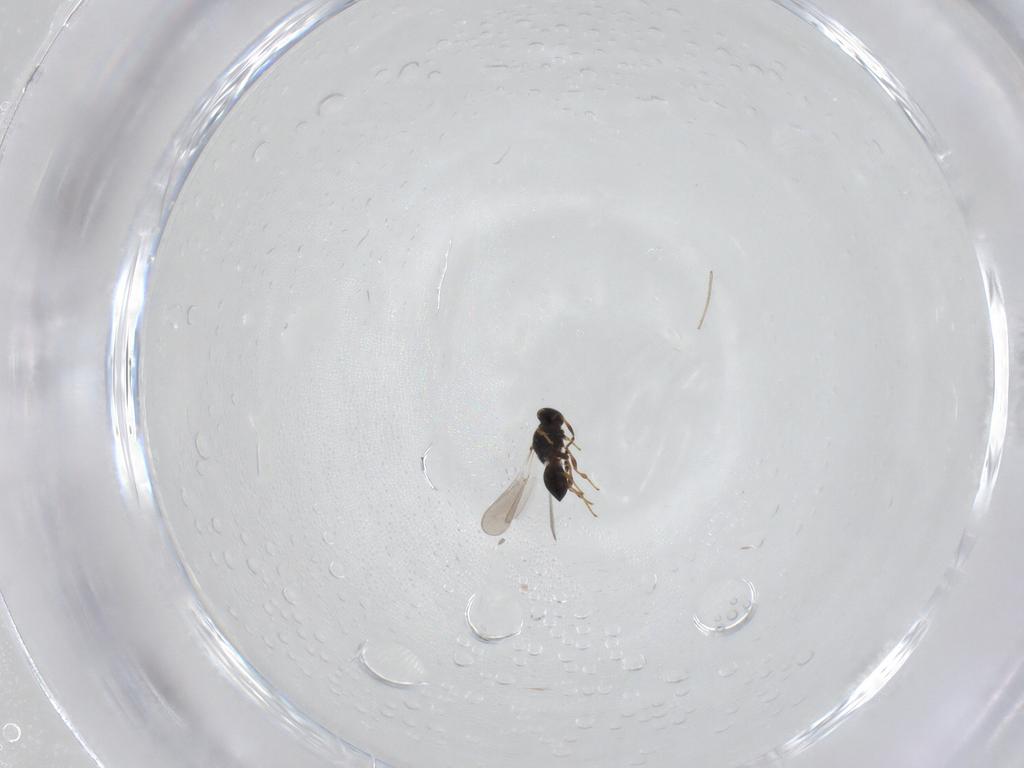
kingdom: Animalia
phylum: Arthropoda
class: Insecta
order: Hymenoptera
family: Platygastridae
